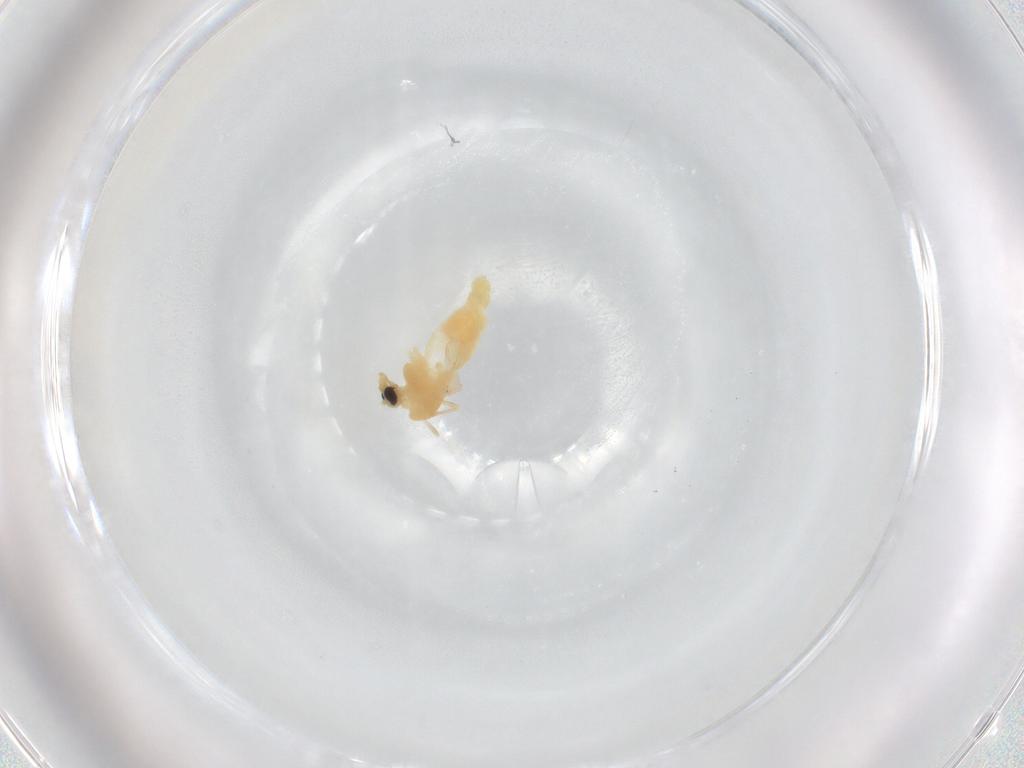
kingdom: Animalia
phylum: Arthropoda
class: Insecta
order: Diptera
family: Chironomidae
